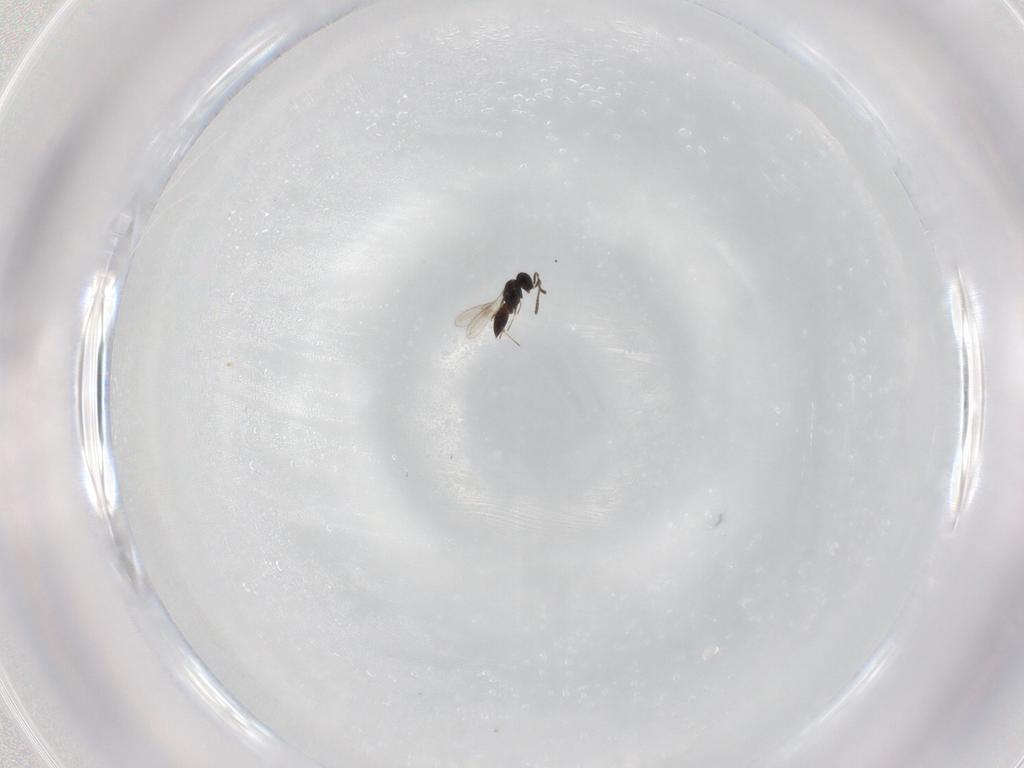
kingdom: Animalia
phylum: Arthropoda
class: Insecta
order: Hymenoptera
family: Scelionidae
